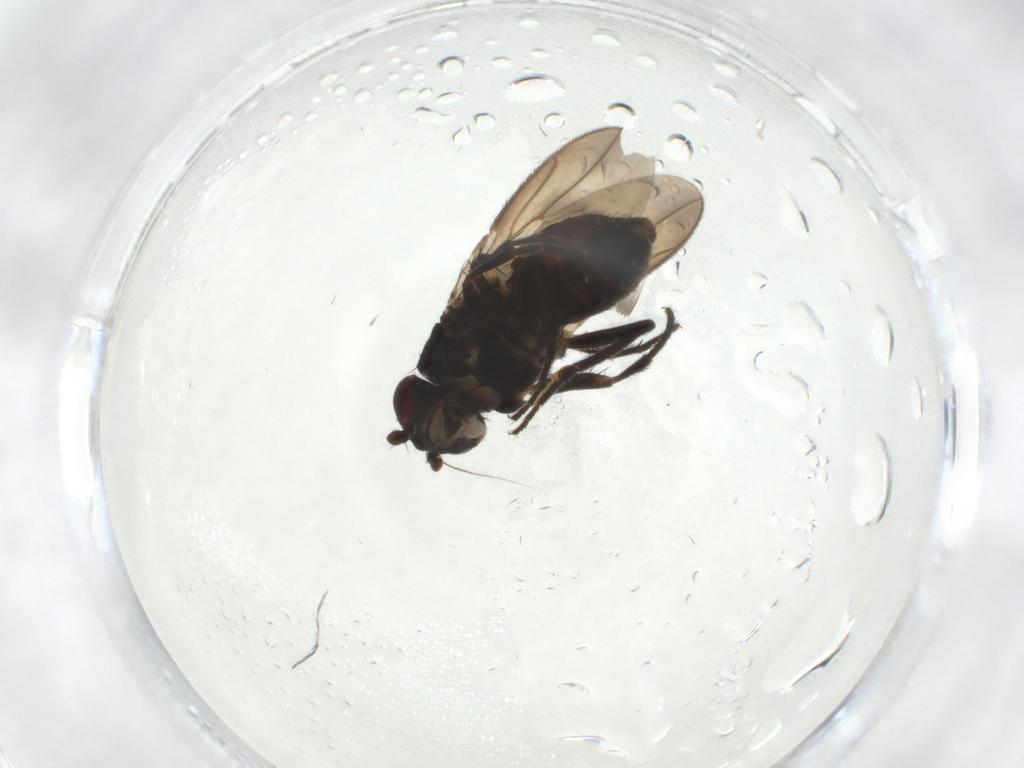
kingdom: Animalia
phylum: Arthropoda
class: Insecta
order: Diptera
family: Sphaeroceridae
